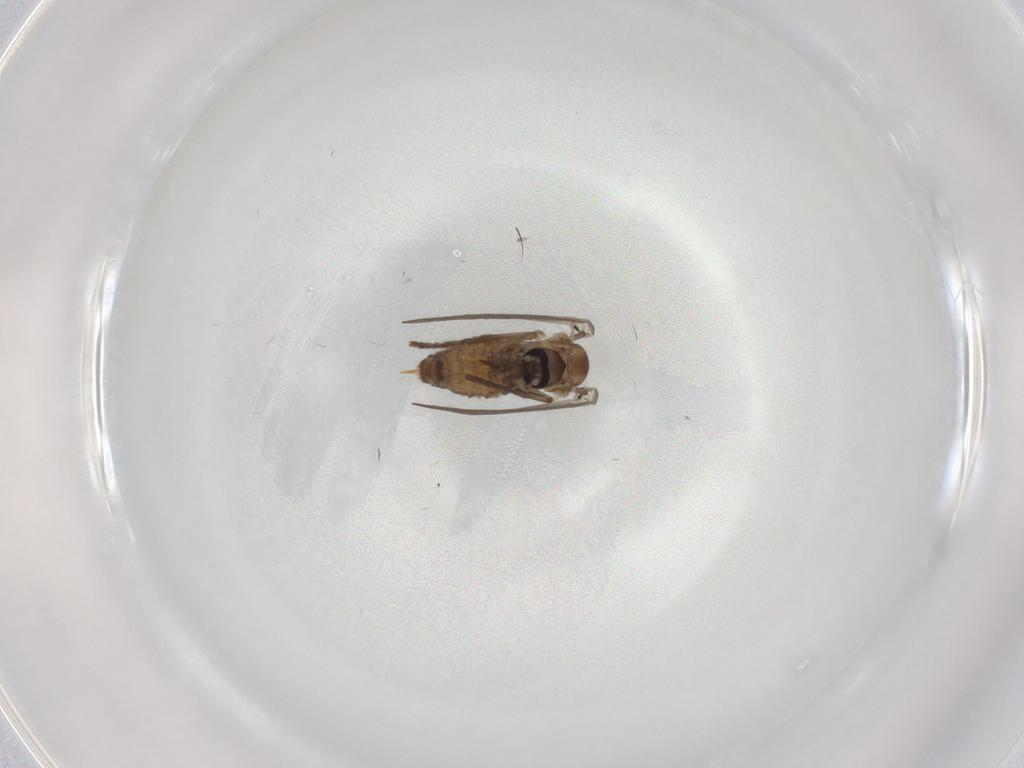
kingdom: Animalia
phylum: Arthropoda
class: Insecta
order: Diptera
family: Psychodidae
